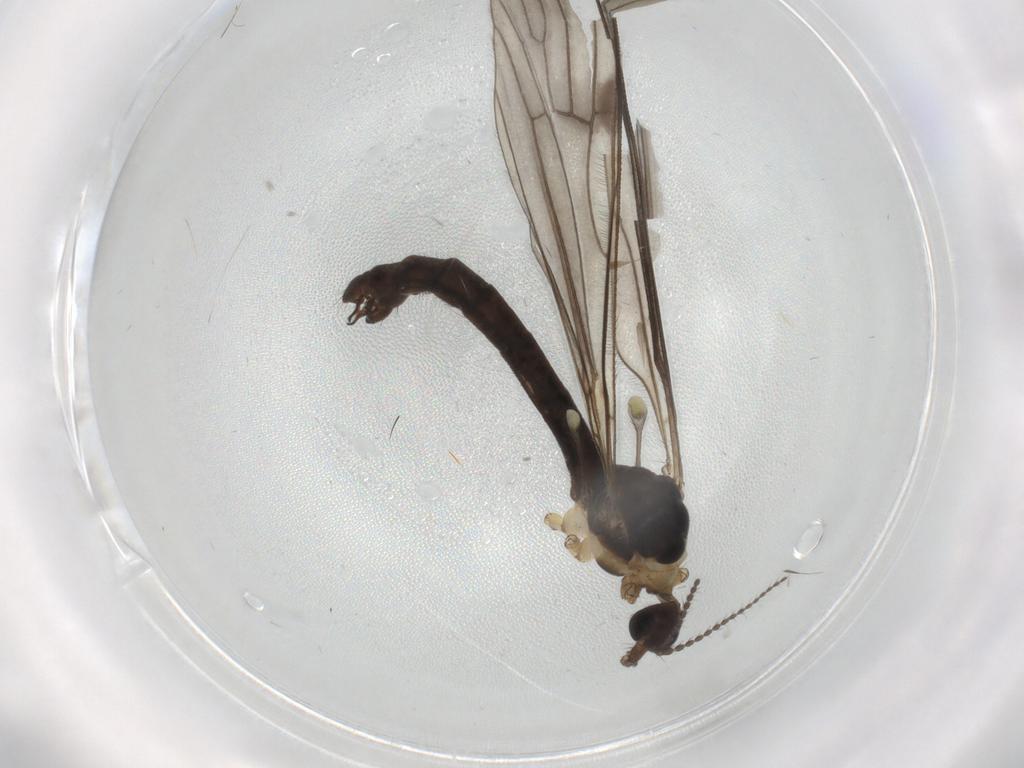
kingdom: Animalia
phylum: Arthropoda
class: Insecta
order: Diptera
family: Limoniidae
